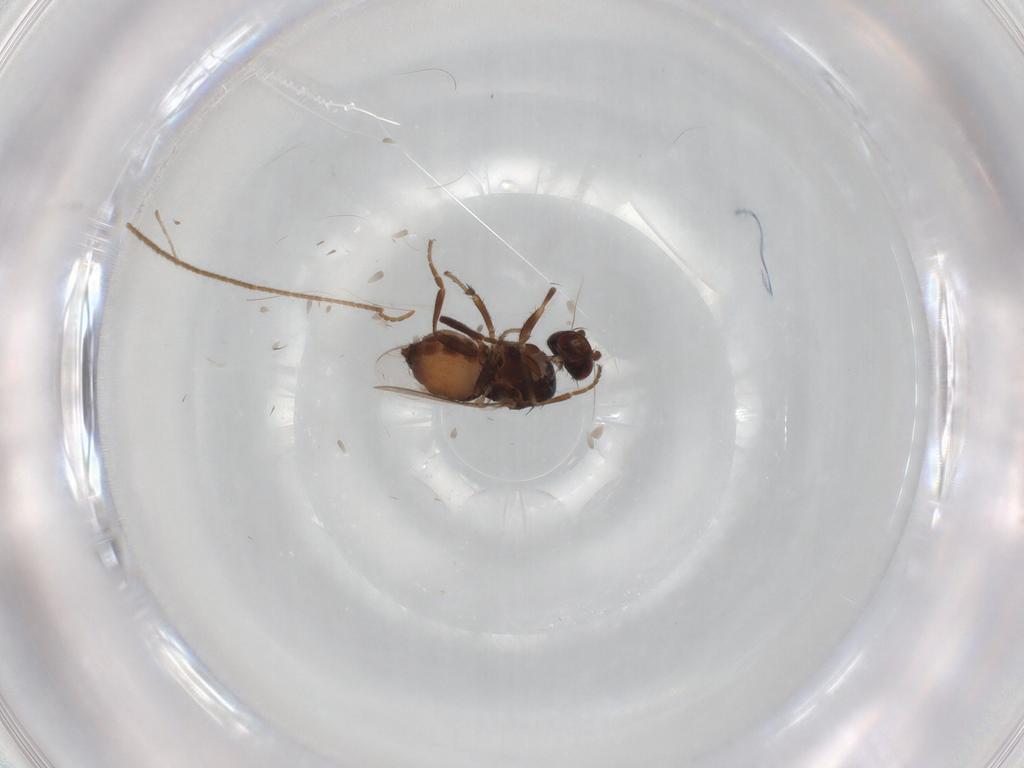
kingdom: Animalia
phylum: Arthropoda
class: Insecta
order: Diptera
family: Sphaeroceridae
